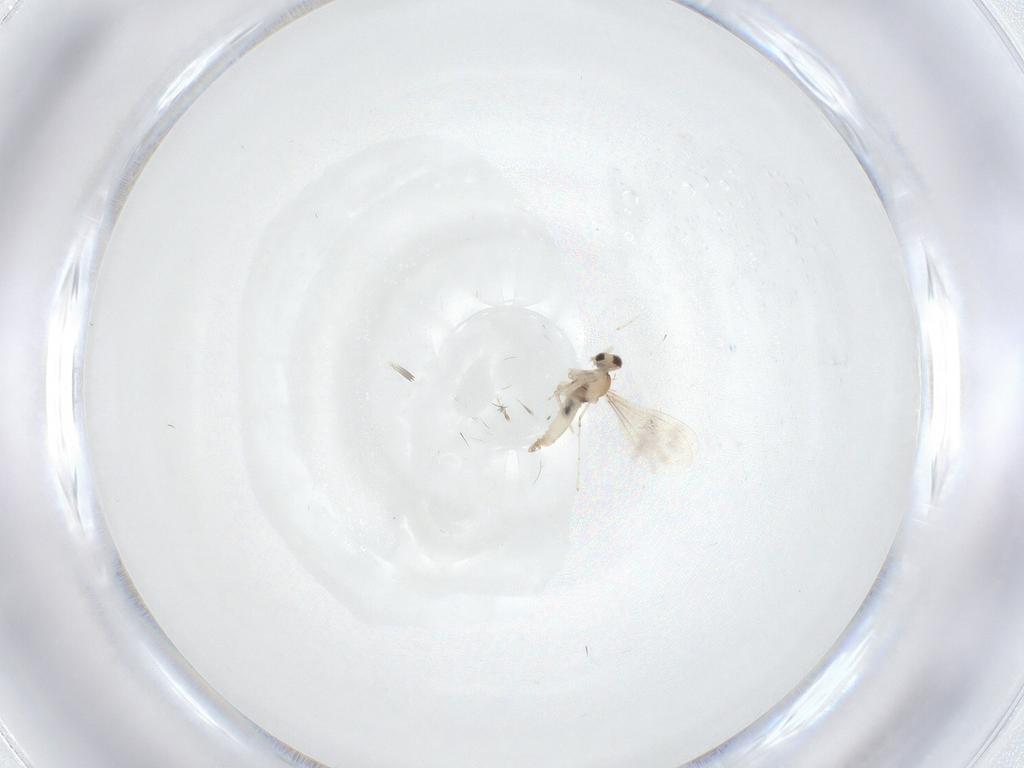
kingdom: Animalia
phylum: Arthropoda
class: Insecta
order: Diptera
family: Cecidomyiidae
